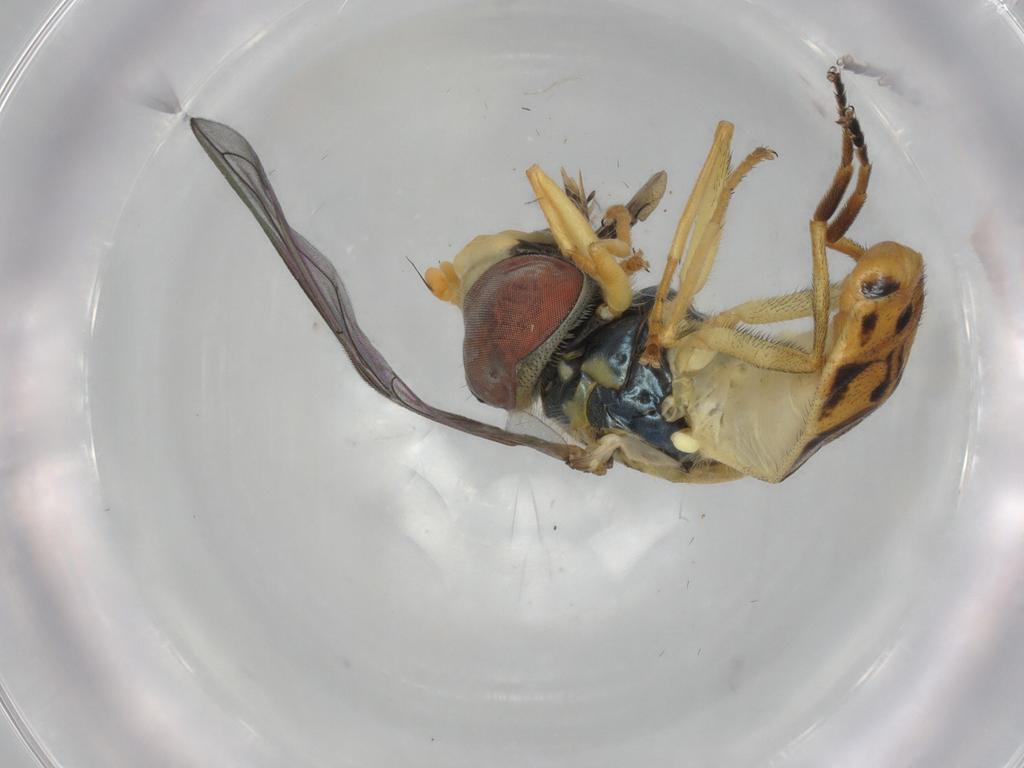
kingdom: Animalia
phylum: Arthropoda
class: Insecta
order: Diptera
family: Syrphidae
